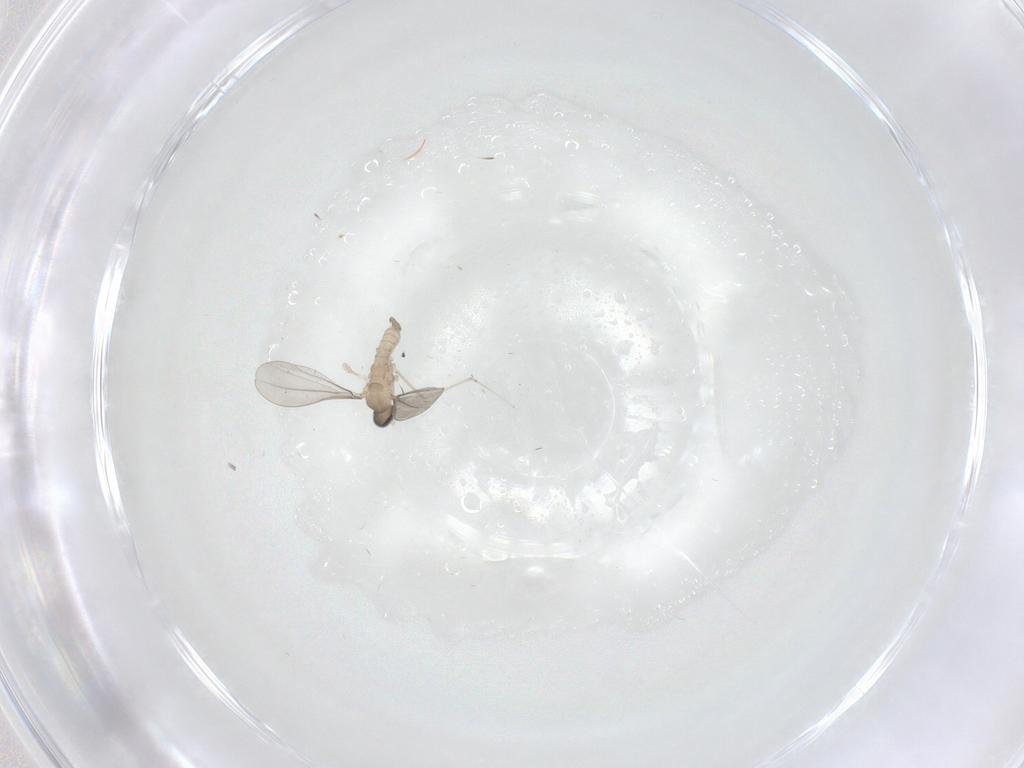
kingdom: Animalia
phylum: Arthropoda
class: Insecta
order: Diptera
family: Cecidomyiidae
